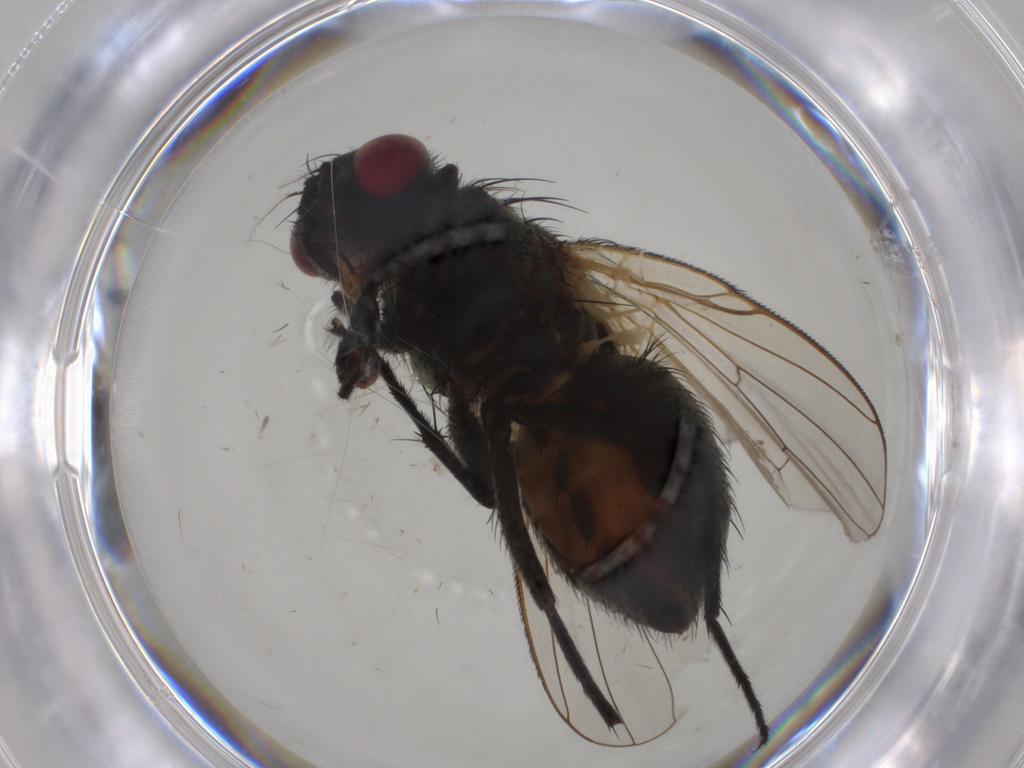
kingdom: Animalia
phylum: Arthropoda
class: Insecta
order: Diptera
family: Muscidae
